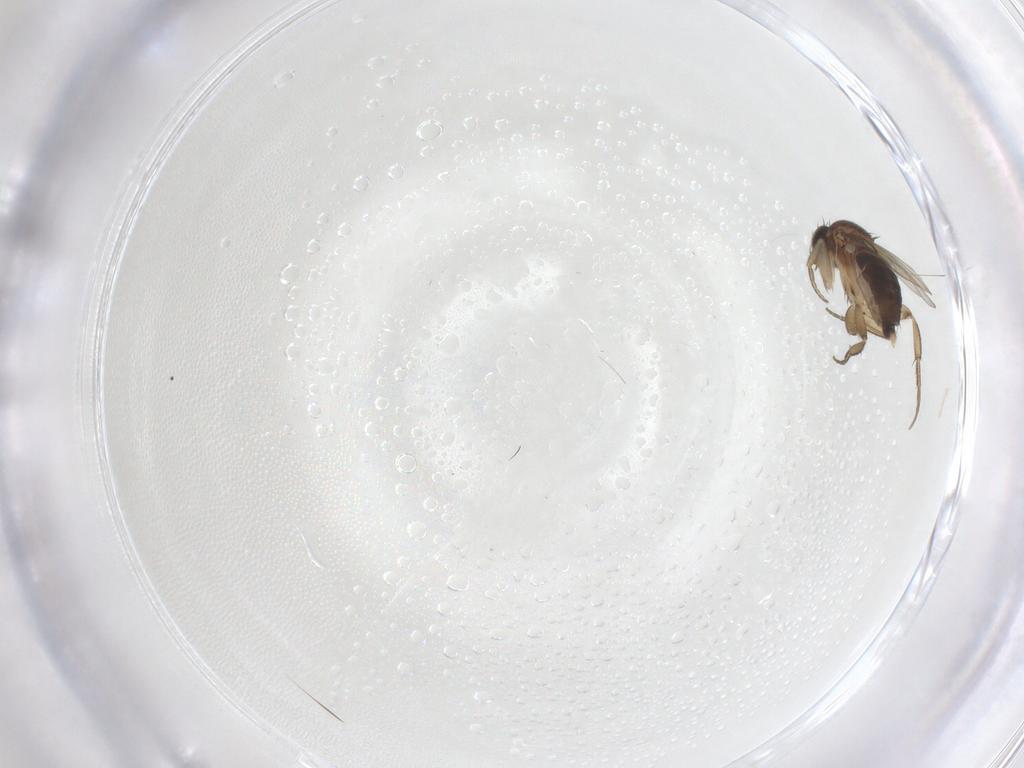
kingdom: Animalia
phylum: Arthropoda
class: Insecta
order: Diptera
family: Phoridae
